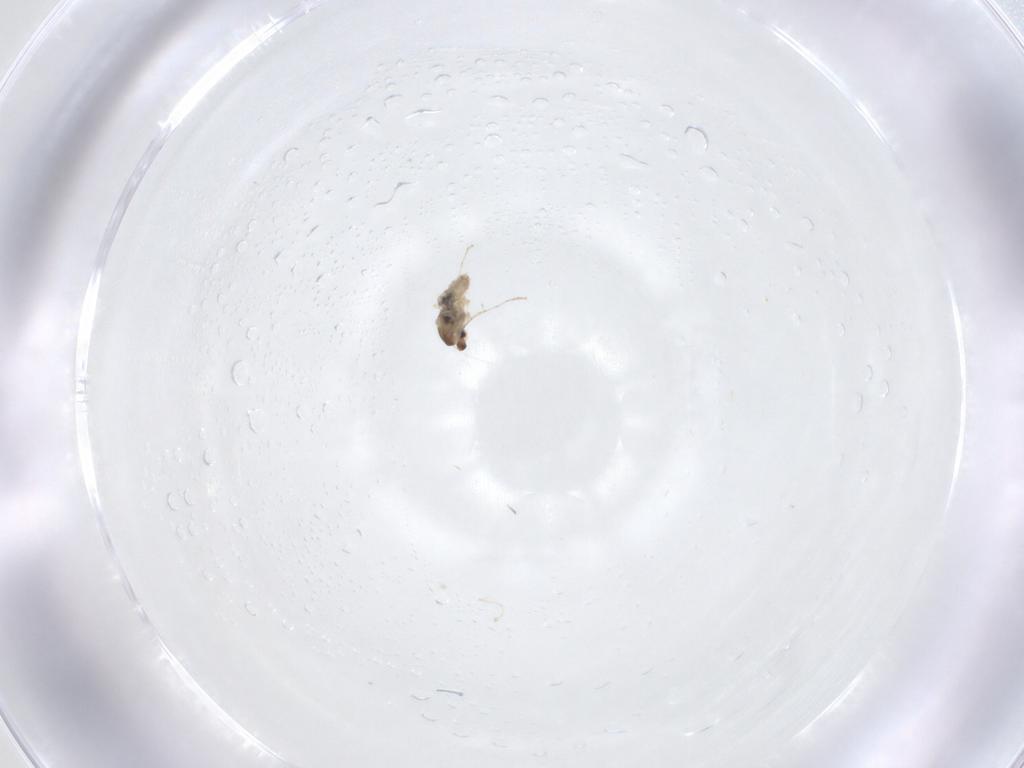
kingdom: Animalia
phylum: Arthropoda
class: Insecta
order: Diptera
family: Cecidomyiidae
